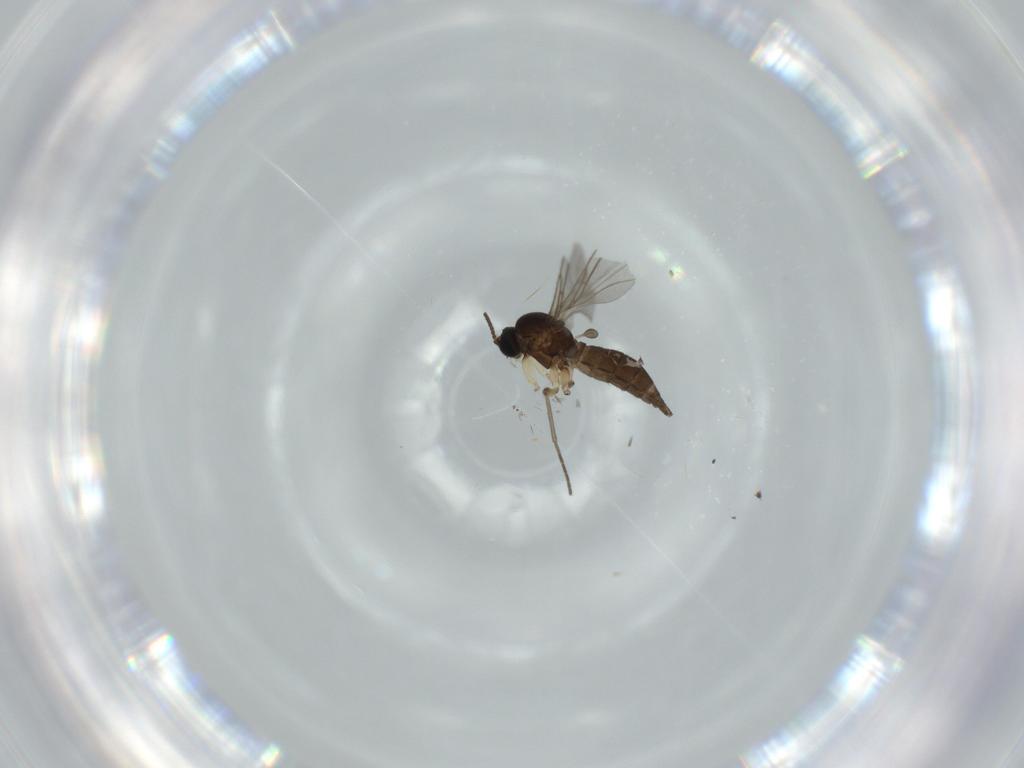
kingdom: Animalia
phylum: Arthropoda
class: Insecta
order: Diptera
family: Sciaridae
